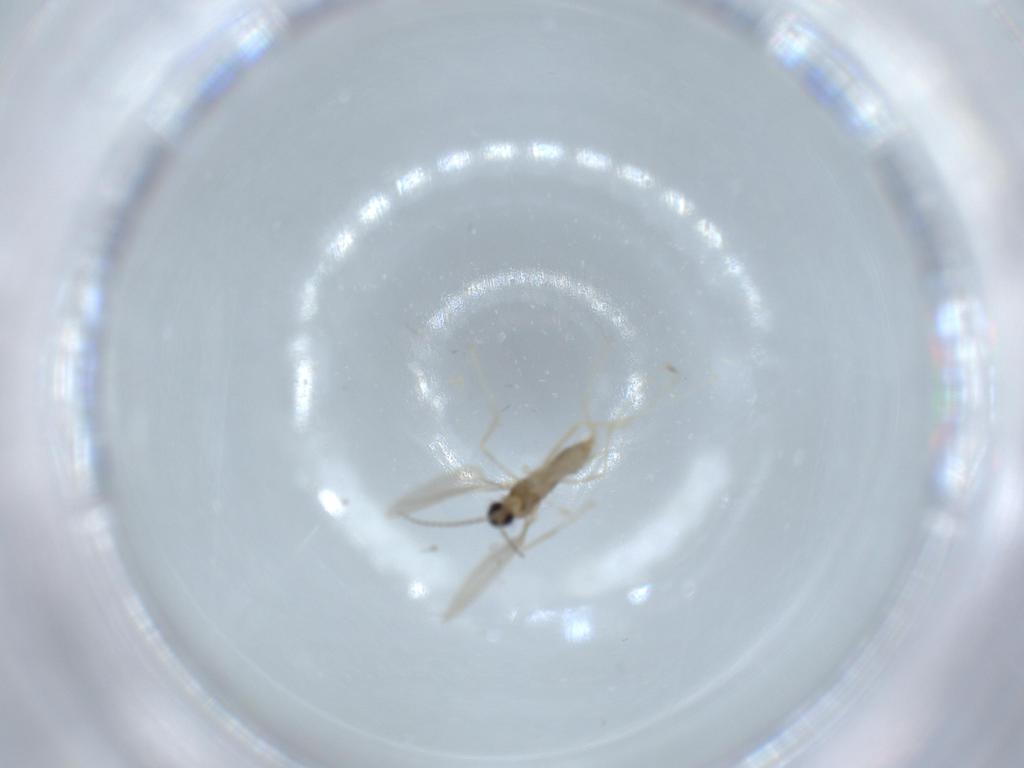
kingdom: Animalia
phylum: Arthropoda
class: Insecta
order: Diptera
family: Cecidomyiidae
